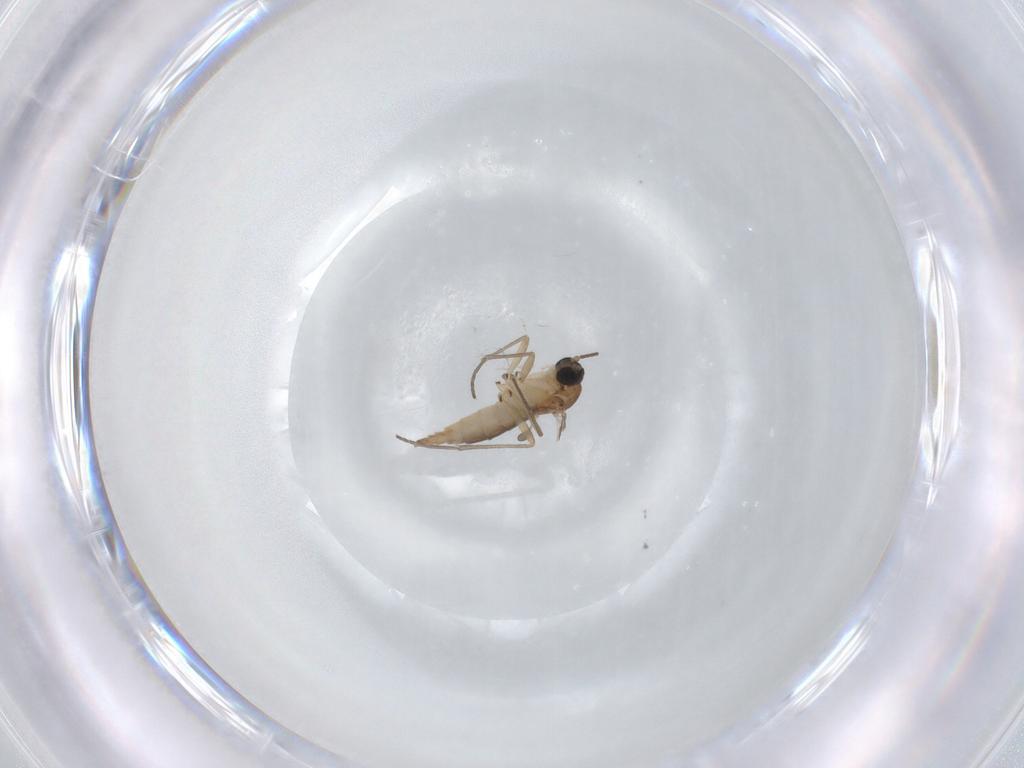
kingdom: Animalia
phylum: Arthropoda
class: Insecta
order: Diptera
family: Sciaridae
